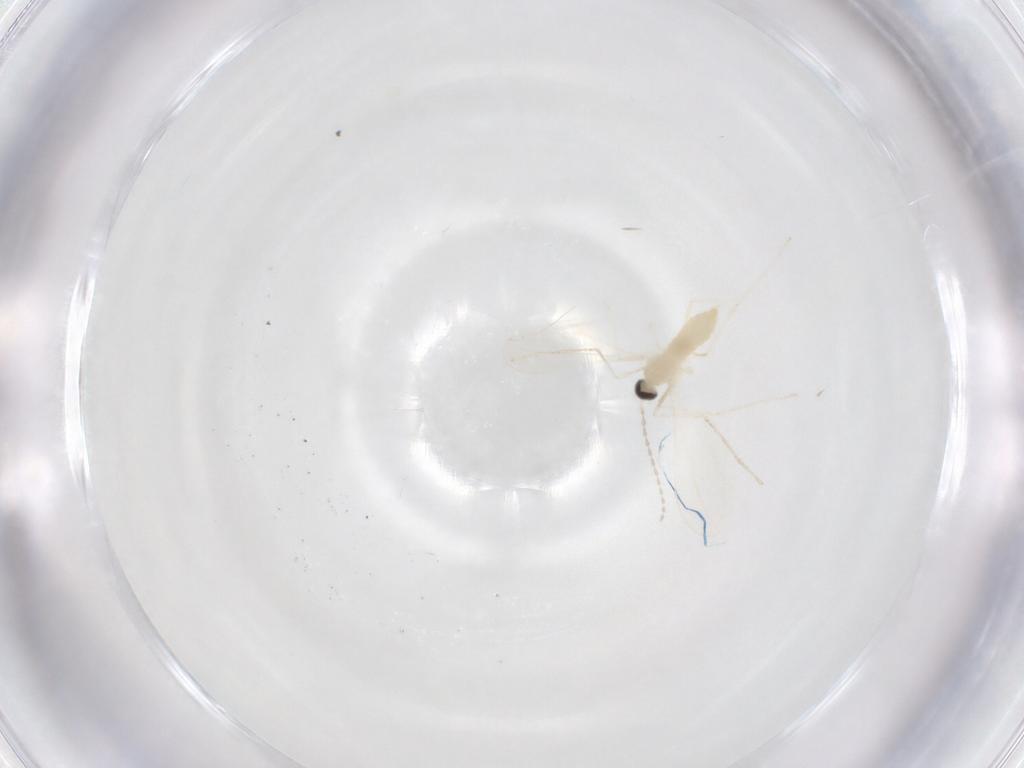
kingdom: Animalia
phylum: Arthropoda
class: Insecta
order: Diptera
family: Cecidomyiidae
